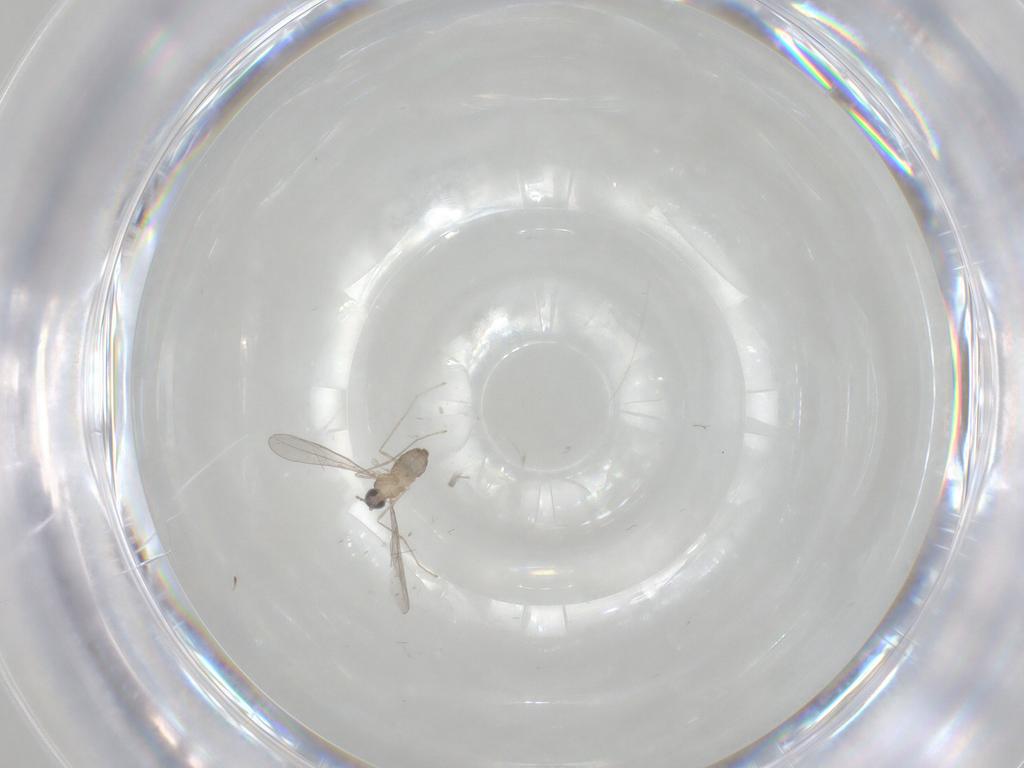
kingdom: Animalia
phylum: Arthropoda
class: Insecta
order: Diptera
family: Cecidomyiidae
